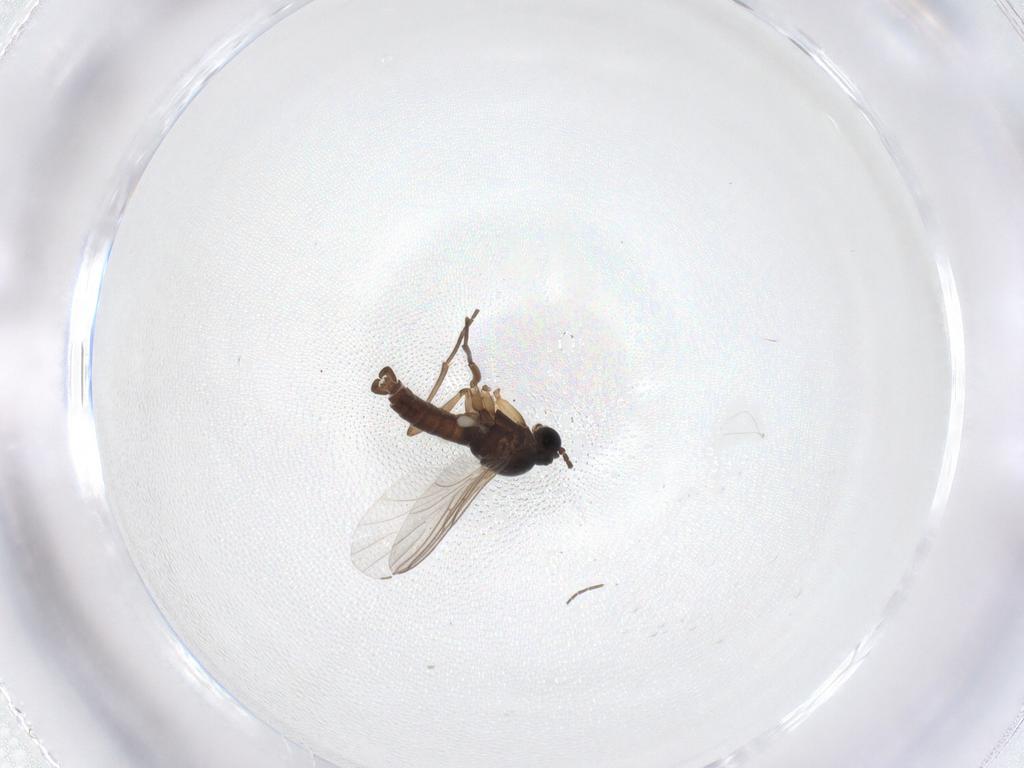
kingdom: Animalia
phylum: Arthropoda
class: Insecta
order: Diptera
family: Sciaridae
